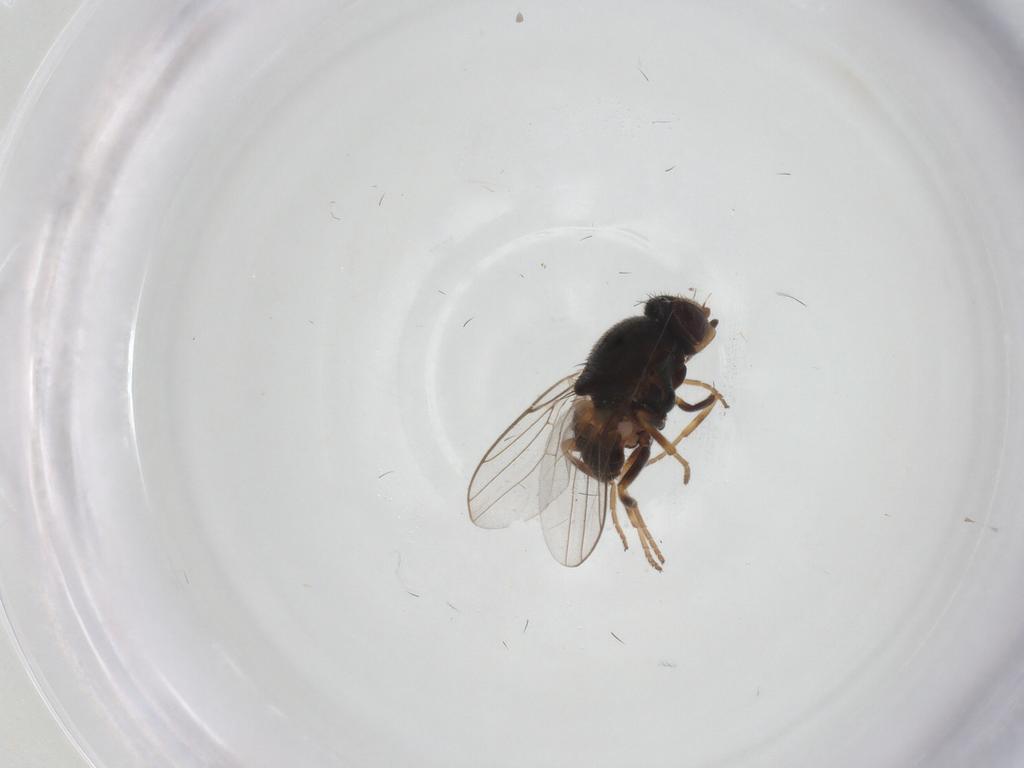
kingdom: Animalia
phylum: Arthropoda
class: Insecta
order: Diptera
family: Chloropidae
